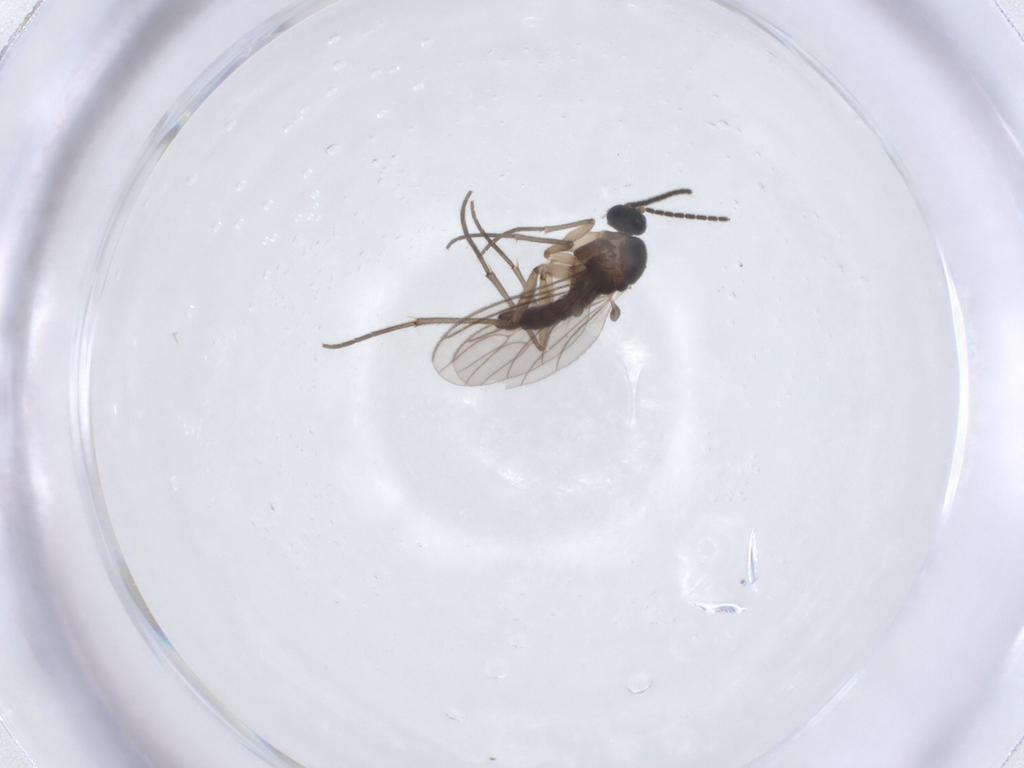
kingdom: Animalia
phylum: Arthropoda
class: Insecta
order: Diptera
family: Sciaridae
